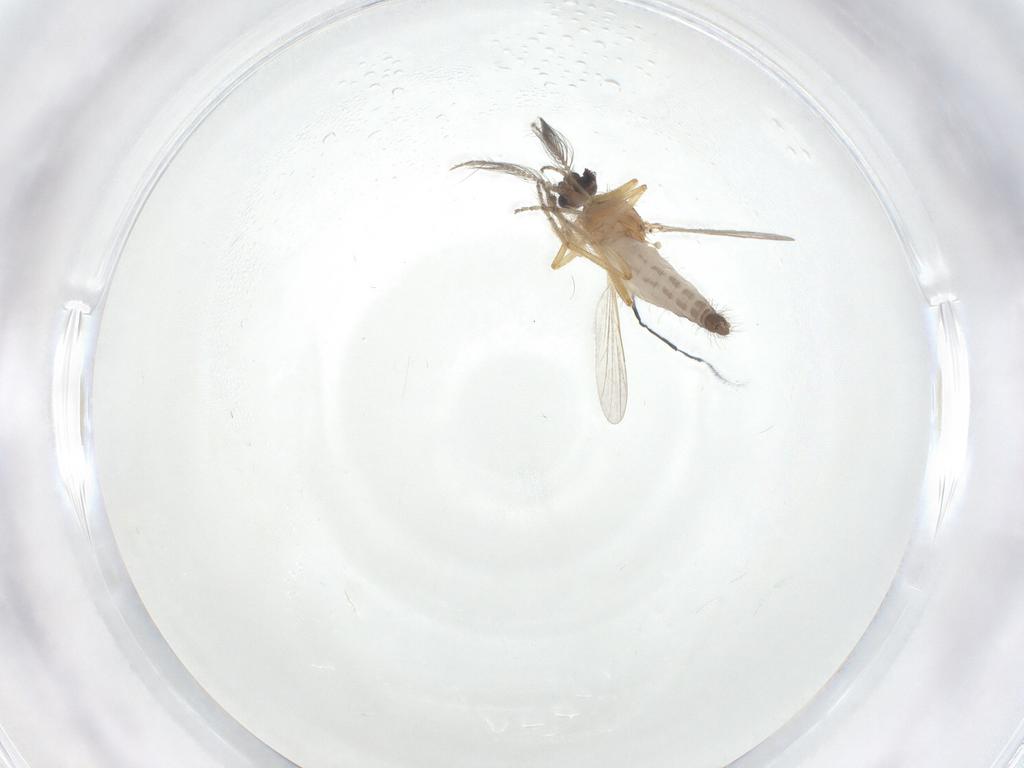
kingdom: Animalia
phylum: Arthropoda
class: Insecta
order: Diptera
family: Ceratopogonidae
